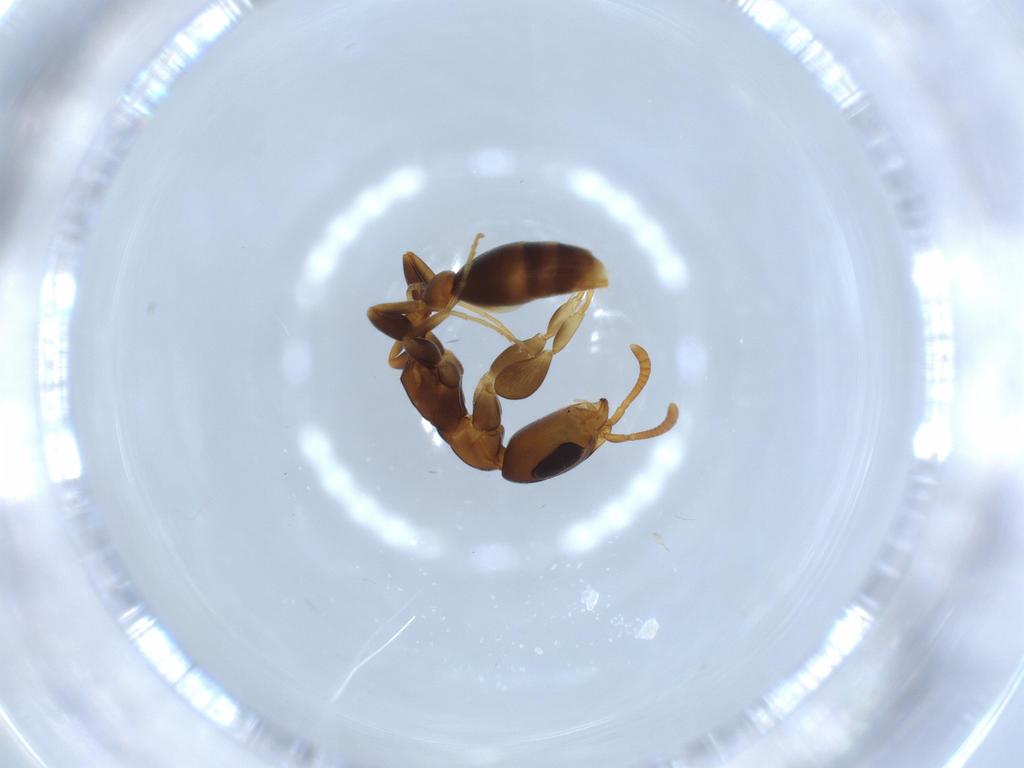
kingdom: Animalia
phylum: Arthropoda
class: Insecta
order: Hymenoptera
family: Formicidae
